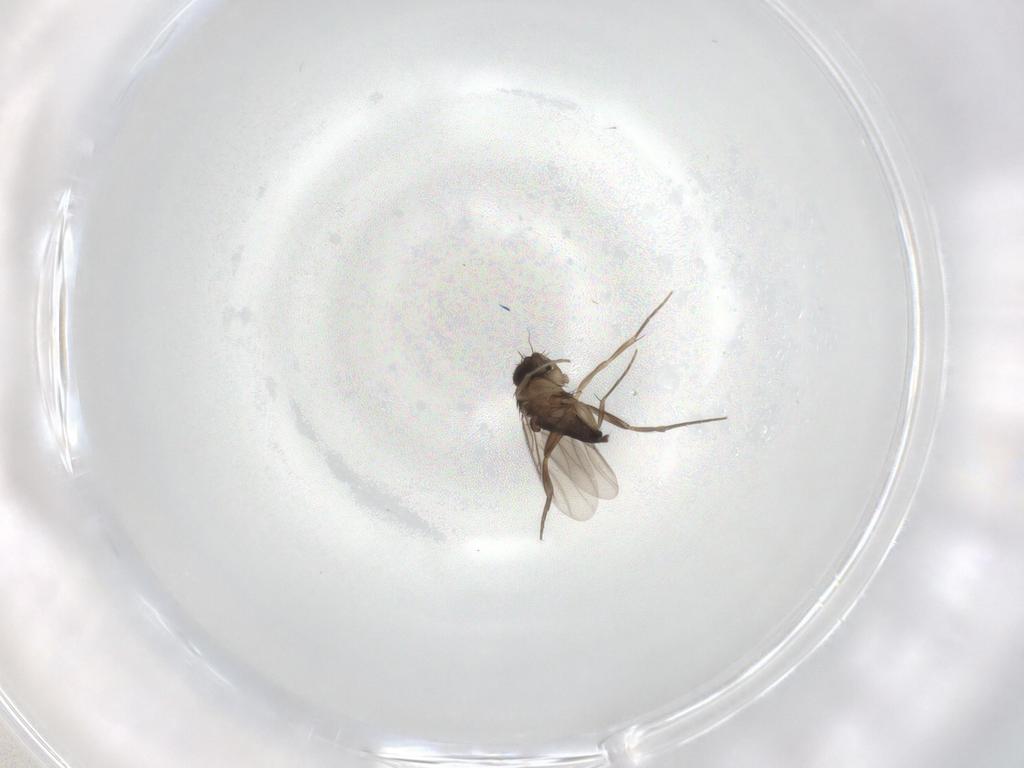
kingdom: Animalia
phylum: Arthropoda
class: Insecta
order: Diptera
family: Phoridae
